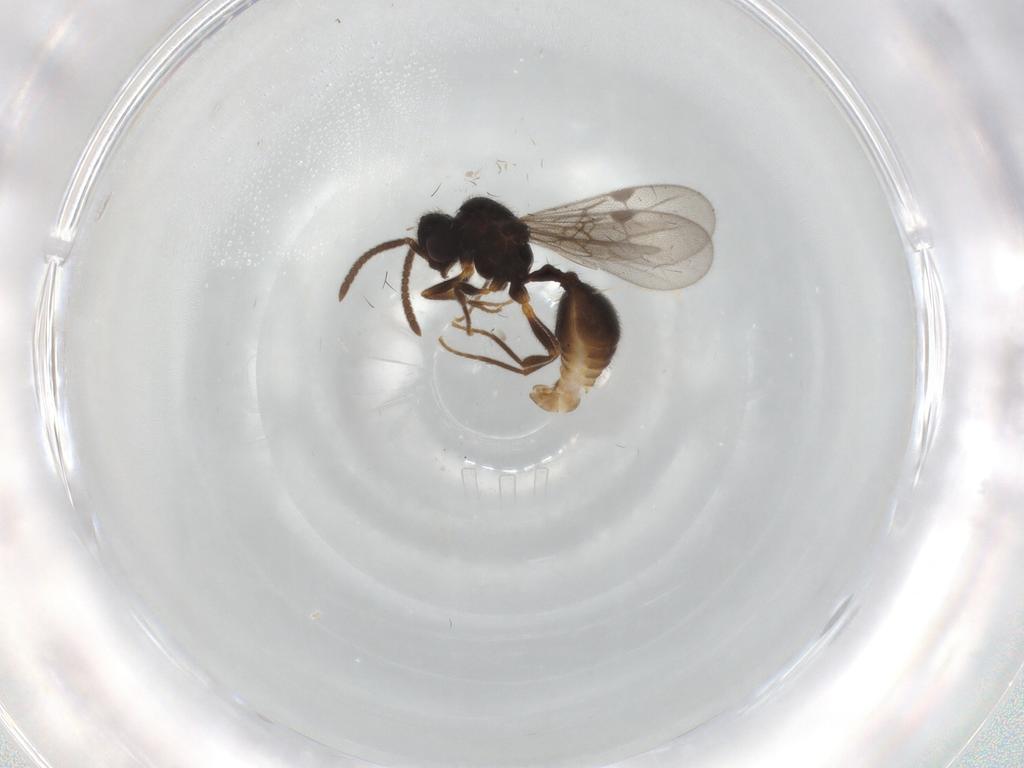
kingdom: Animalia
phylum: Arthropoda
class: Insecta
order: Hymenoptera
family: Formicidae
